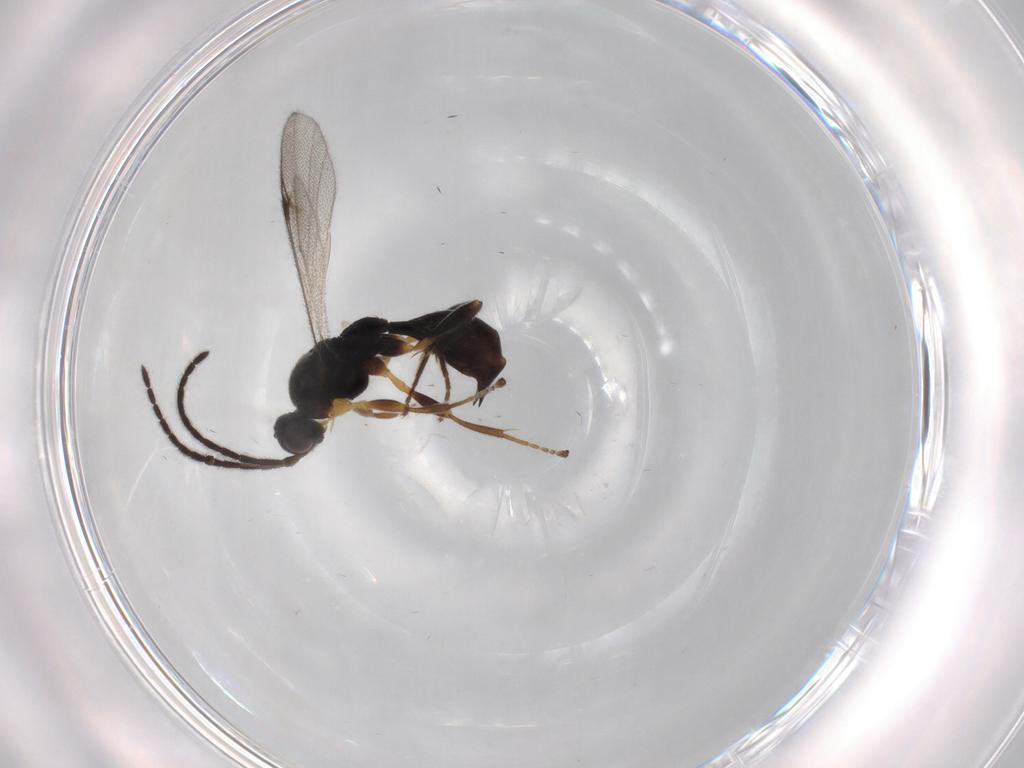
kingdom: Animalia
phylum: Arthropoda
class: Insecta
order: Hymenoptera
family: Proctotrupidae
